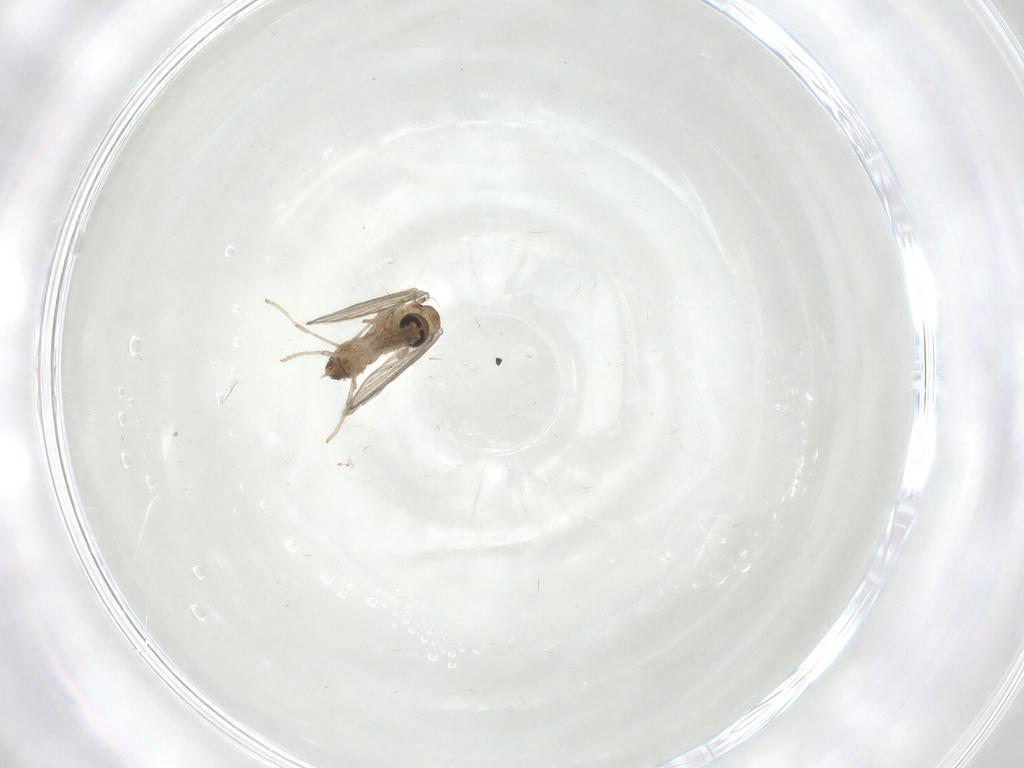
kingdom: Animalia
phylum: Arthropoda
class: Insecta
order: Diptera
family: Psychodidae
